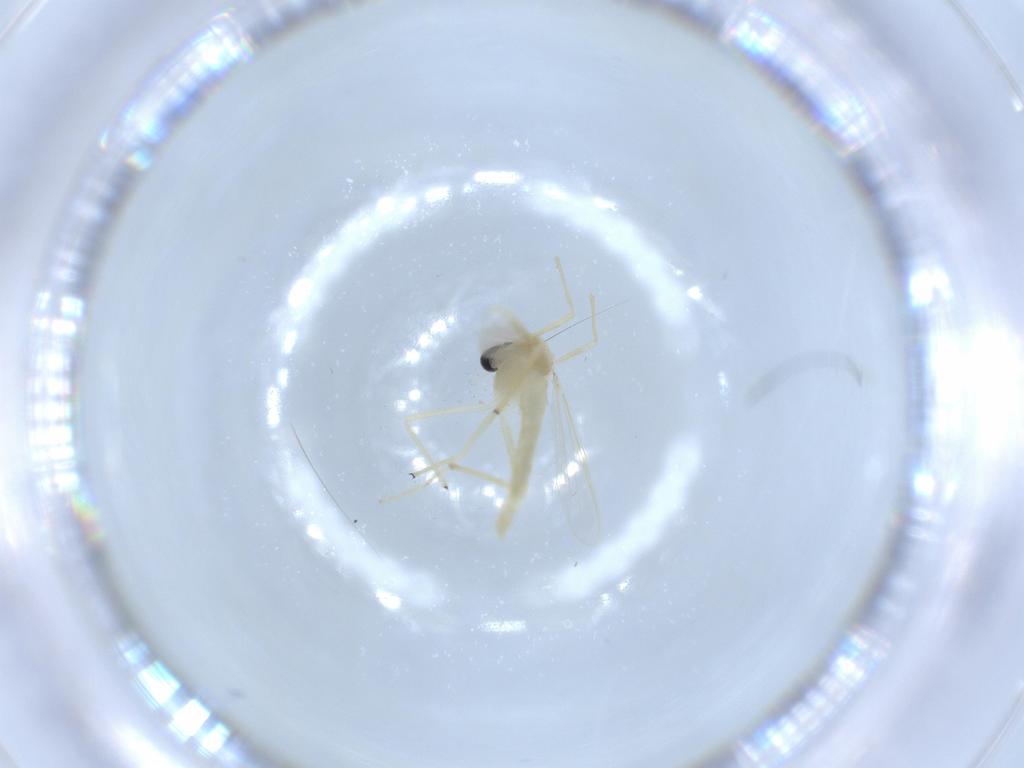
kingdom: Animalia
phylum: Arthropoda
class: Insecta
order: Diptera
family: Chironomidae
